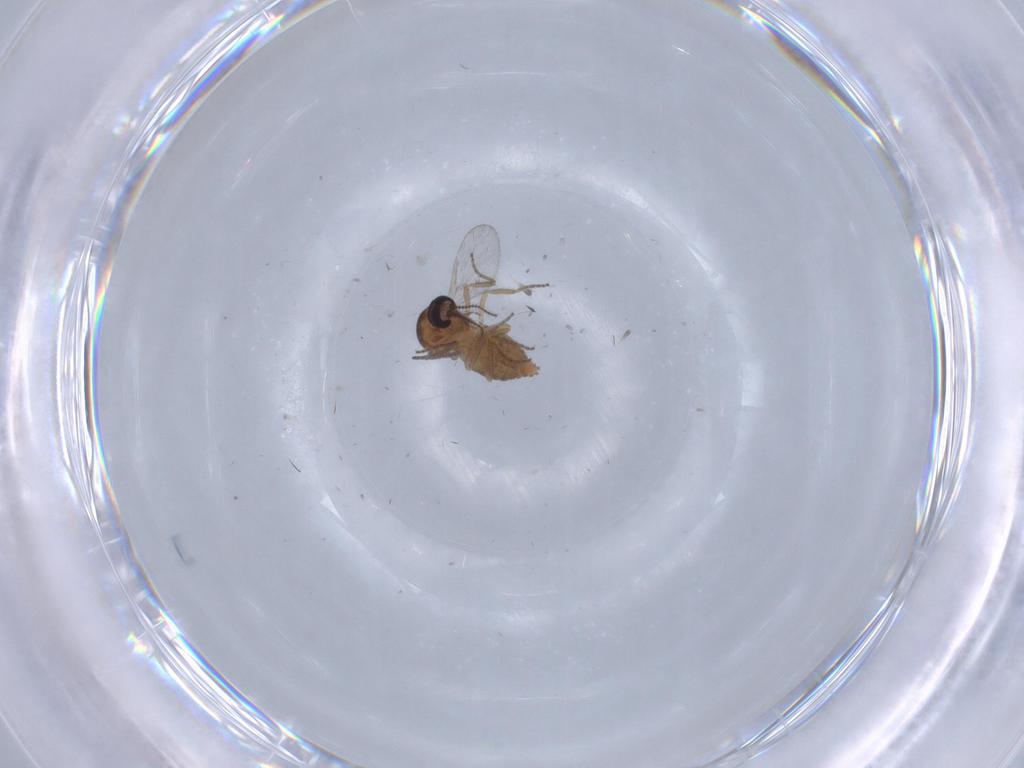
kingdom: Animalia
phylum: Arthropoda
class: Insecta
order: Diptera
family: Ceratopogonidae
